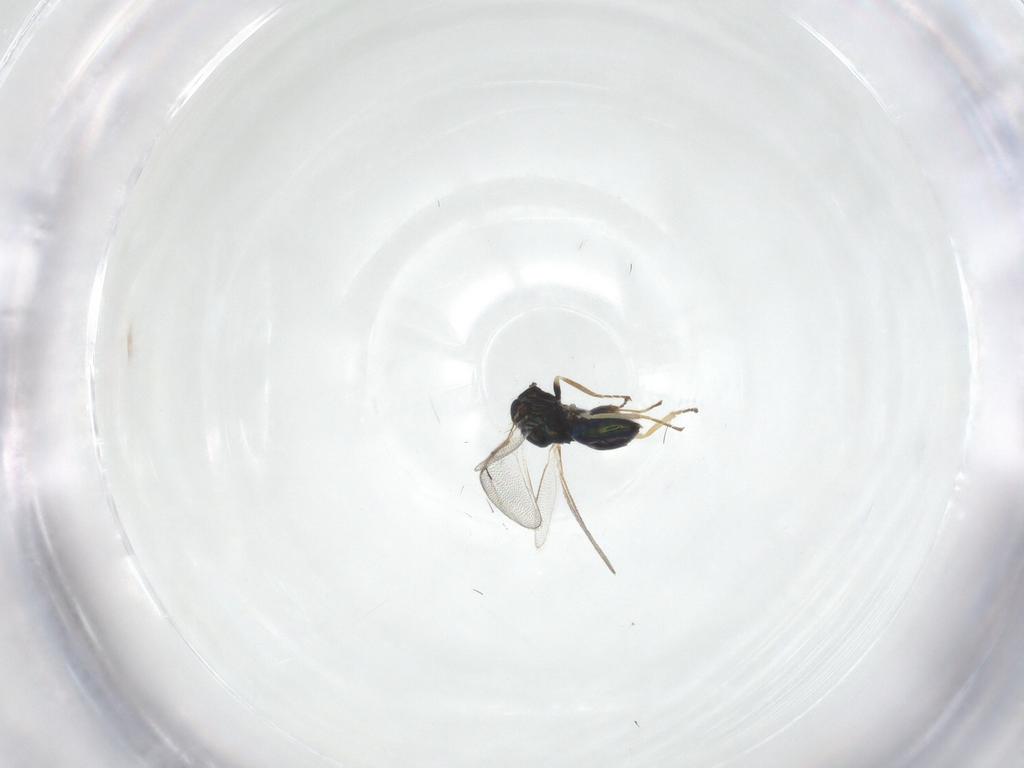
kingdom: Animalia
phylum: Arthropoda
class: Insecta
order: Hymenoptera
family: Eulophidae
